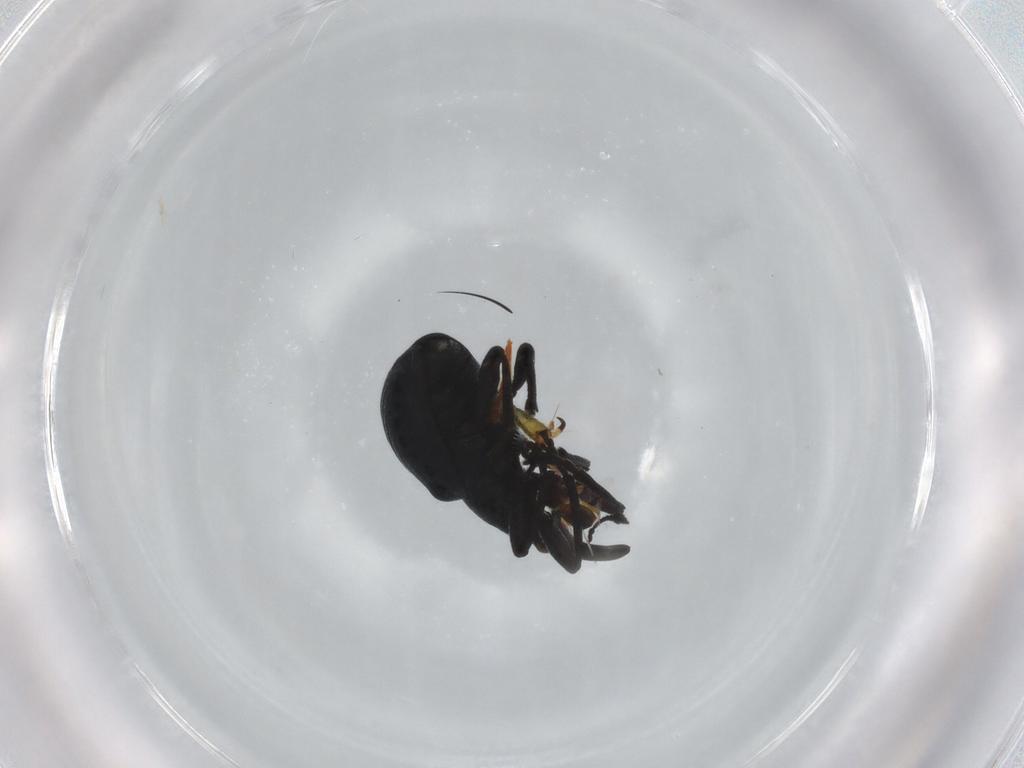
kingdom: Animalia
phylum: Arthropoda
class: Insecta
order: Coleoptera
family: Apionidae
